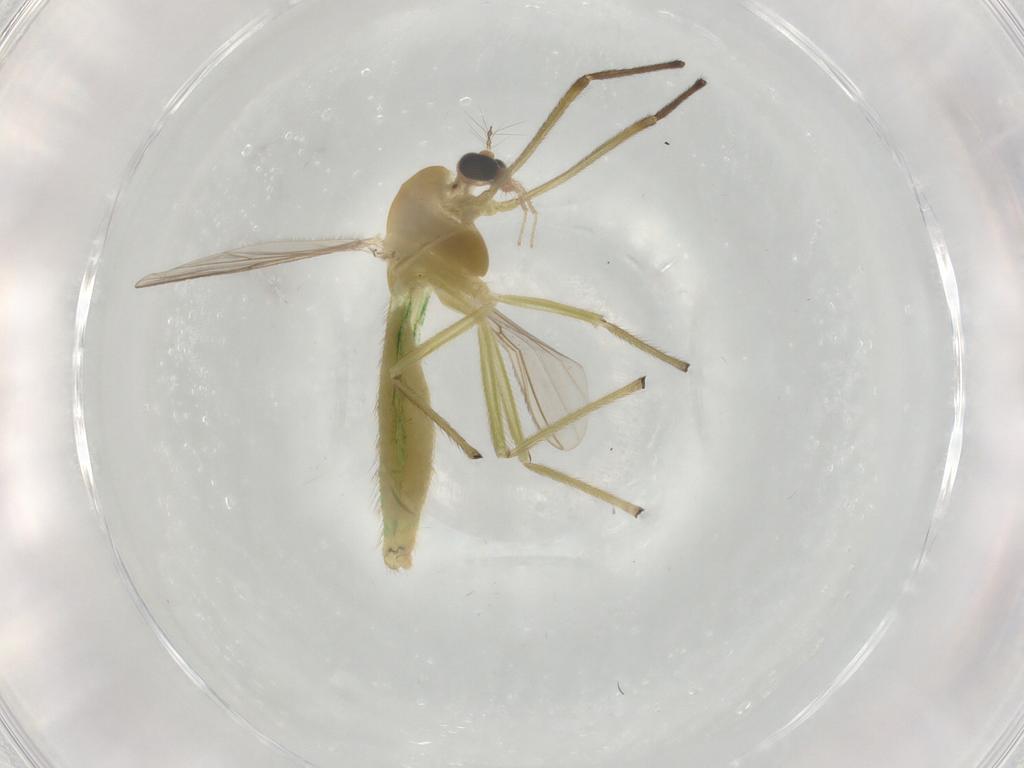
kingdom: Animalia
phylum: Arthropoda
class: Insecta
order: Diptera
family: Chironomidae
